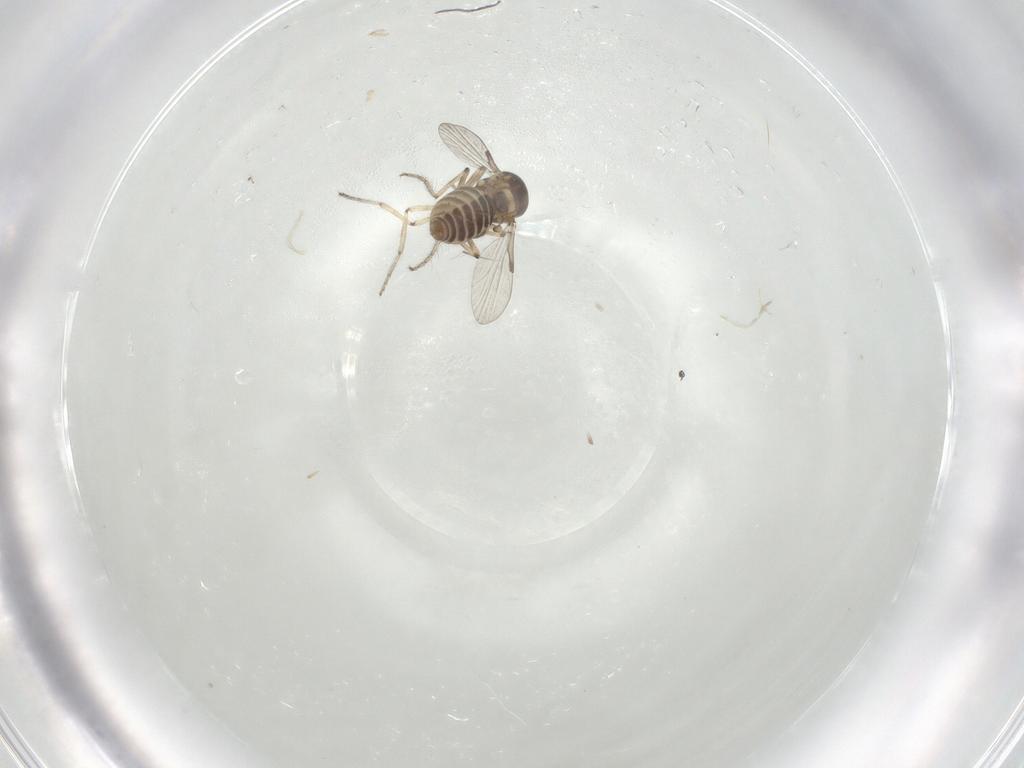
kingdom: Animalia
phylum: Arthropoda
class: Insecta
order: Diptera
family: Ceratopogonidae
